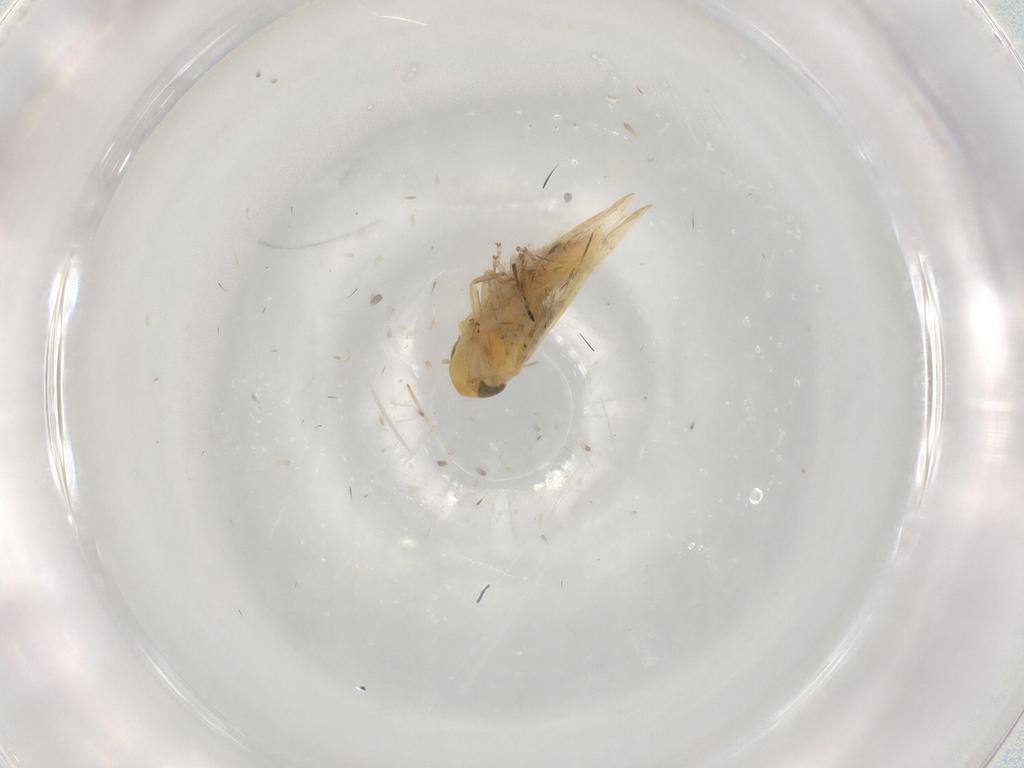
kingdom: Animalia
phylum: Arthropoda
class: Insecta
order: Hemiptera
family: Cicadellidae
